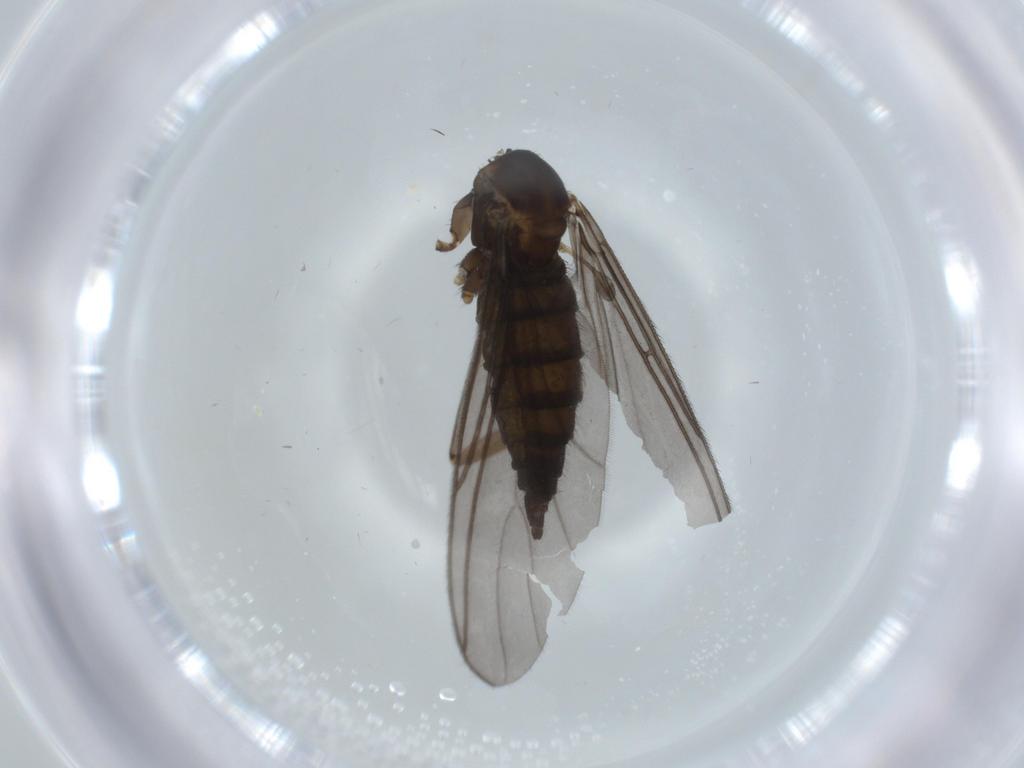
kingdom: Animalia
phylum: Arthropoda
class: Insecta
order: Diptera
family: Sciaridae
